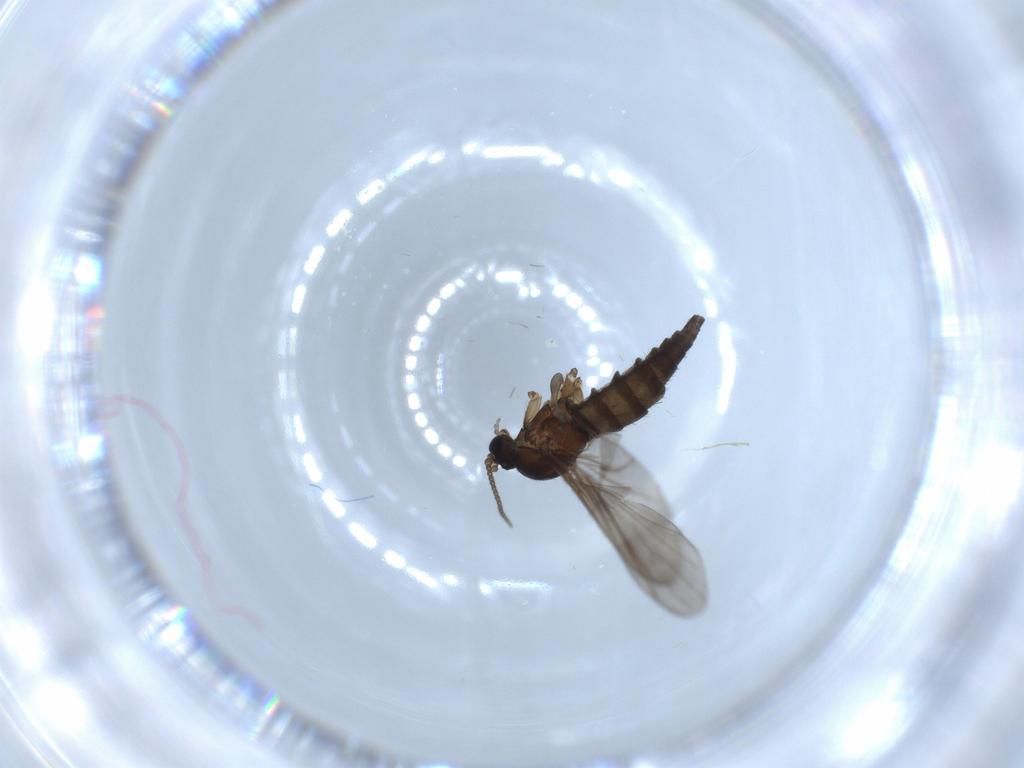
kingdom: Animalia
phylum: Arthropoda
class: Insecta
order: Diptera
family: Sciaridae
